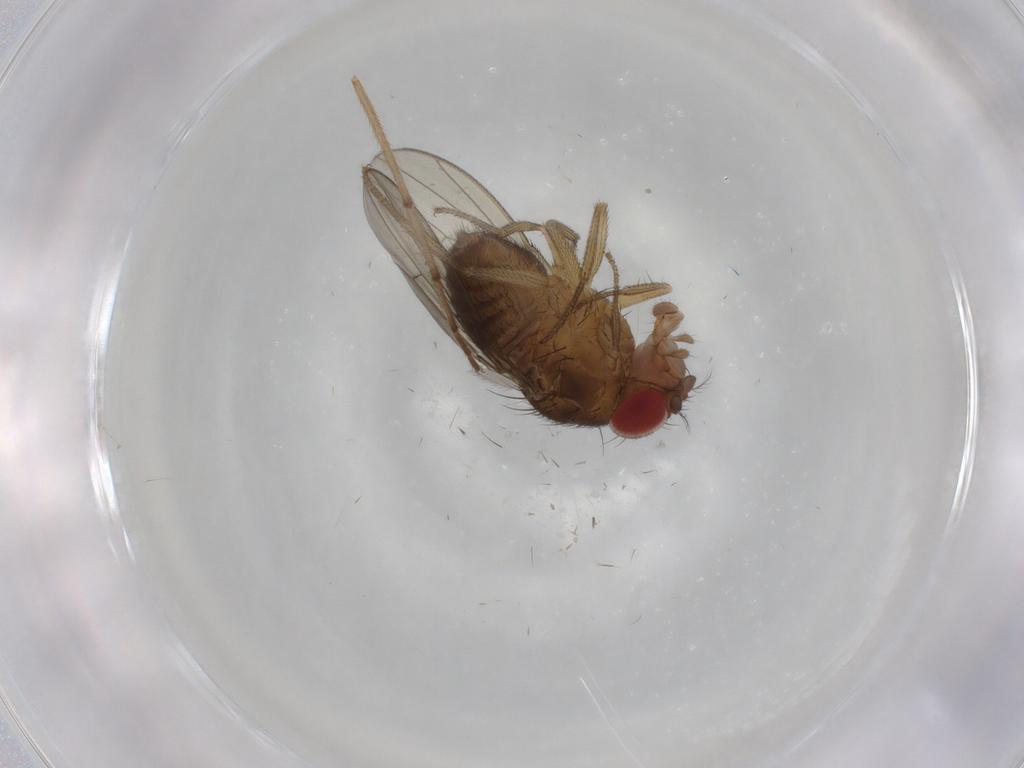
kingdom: Animalia
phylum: Arthropoda
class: Insecta
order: Diptera
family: Drosophilidae
